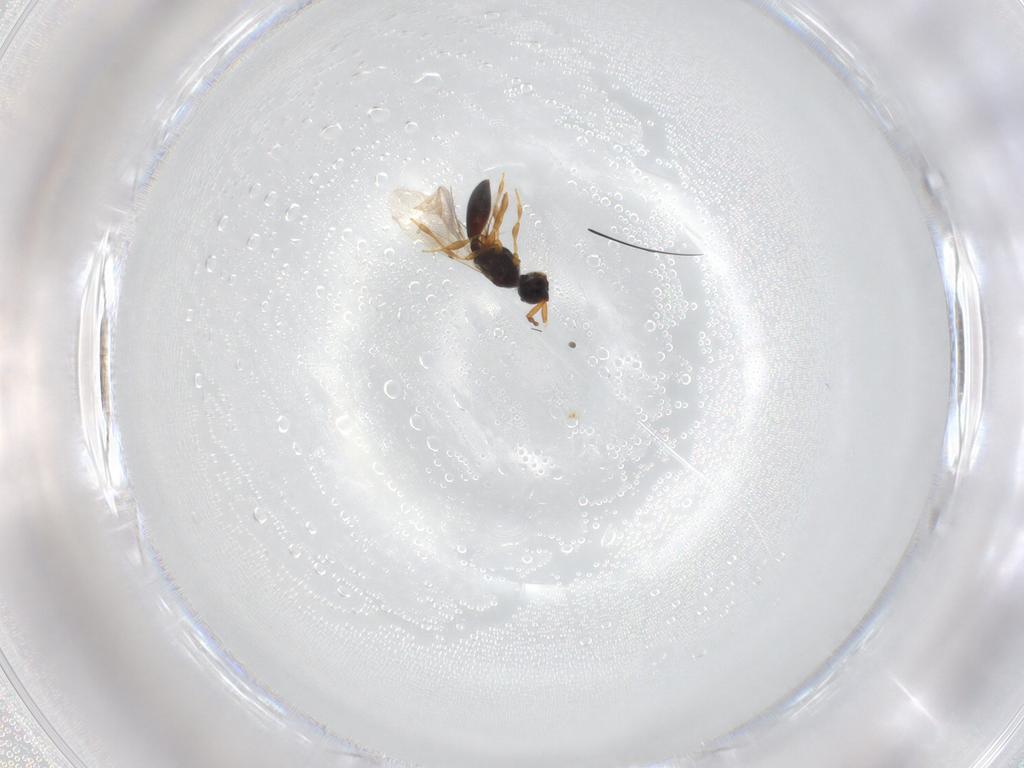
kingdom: Animalia
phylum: Arthropoda
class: Insecta
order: Hymenoptera
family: Diapriidae
